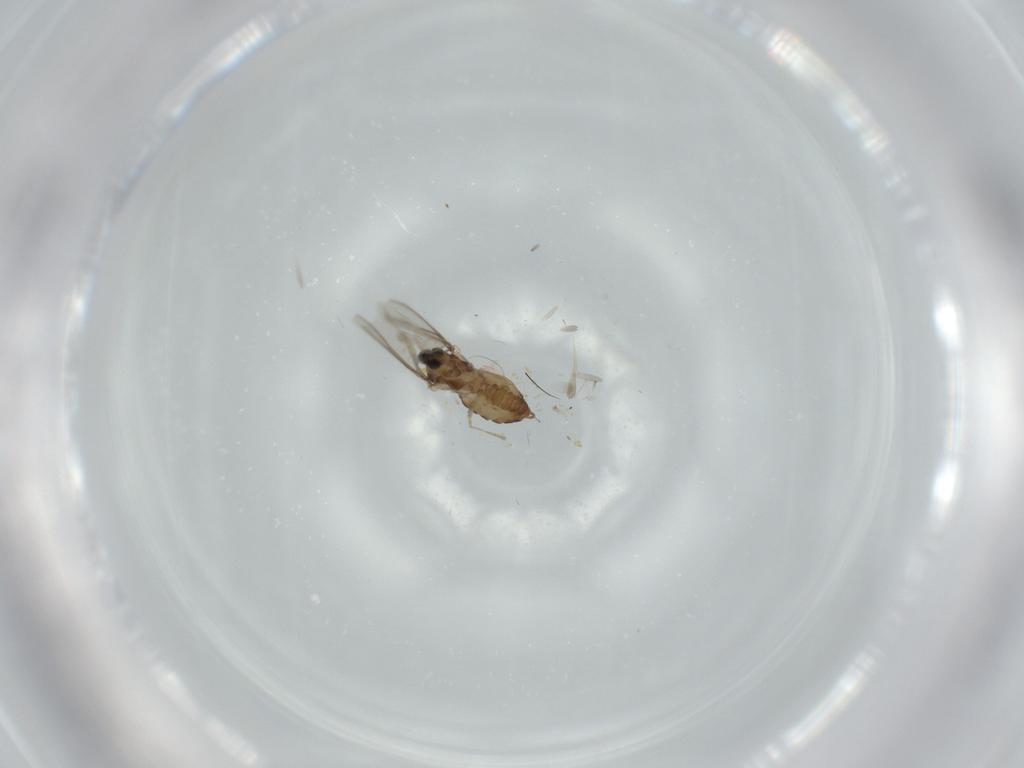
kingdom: Animalia
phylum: Arthropoda
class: Insecta
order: Diptera
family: Cecidomyiidae
